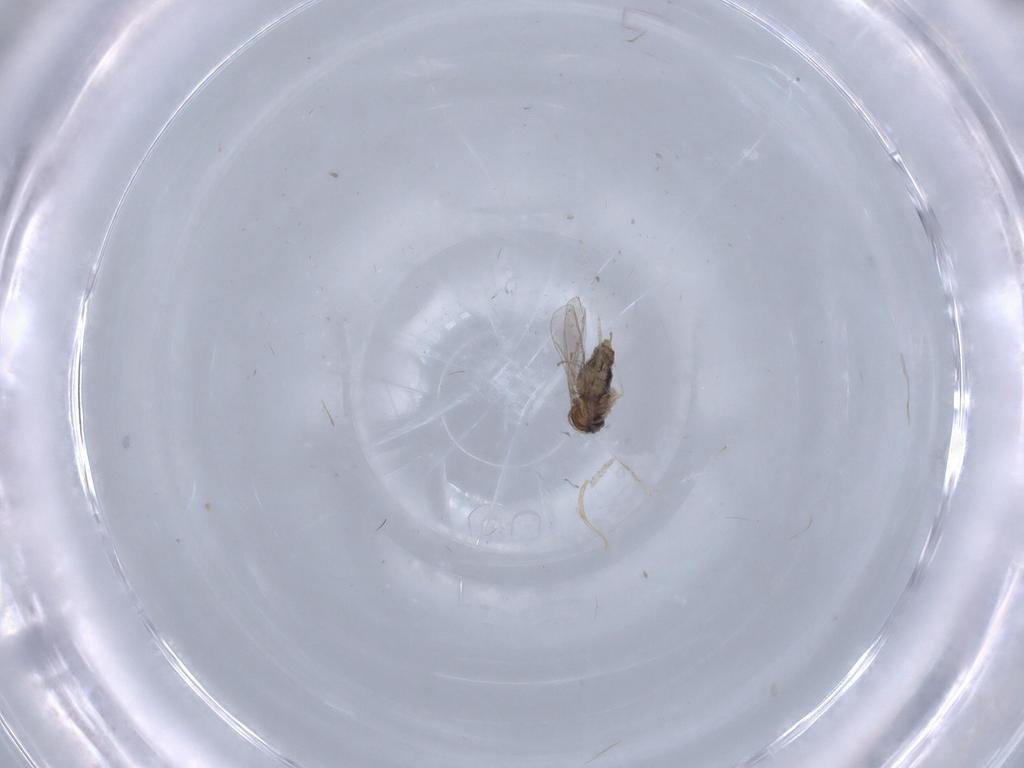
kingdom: Animalia
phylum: Arthropoda
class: Insecta
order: Diptera
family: Cecidomyiidae
